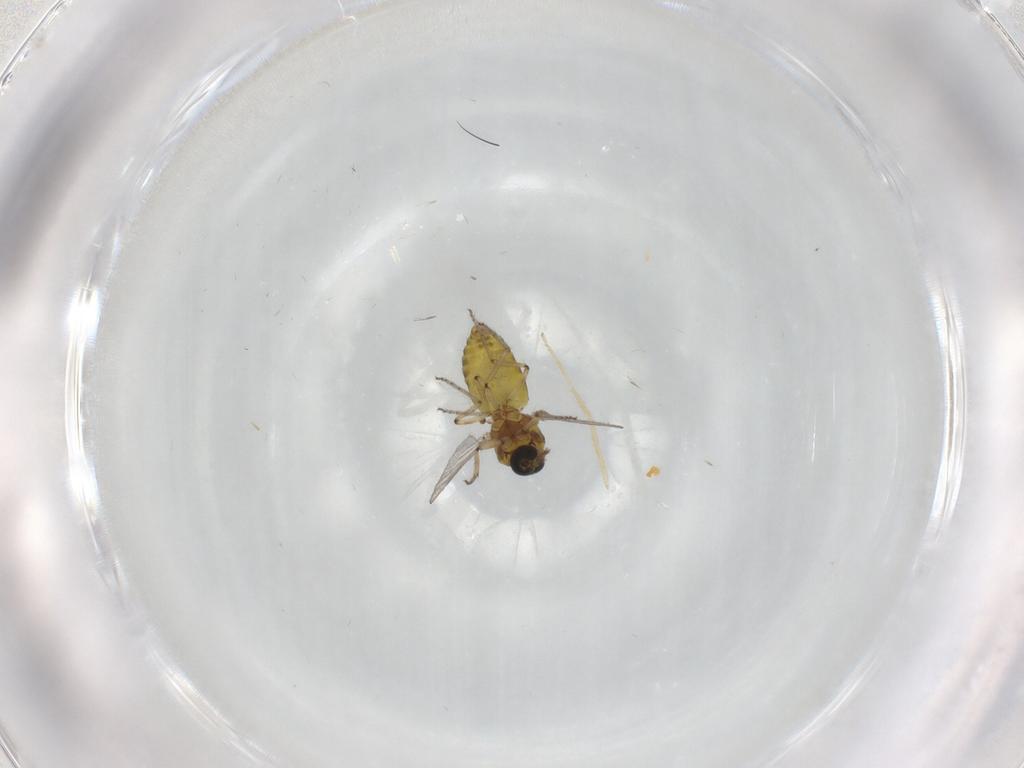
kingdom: Animalia
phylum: Arthropoda
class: Insecta
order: Diptera
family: Ceratopogonidae
